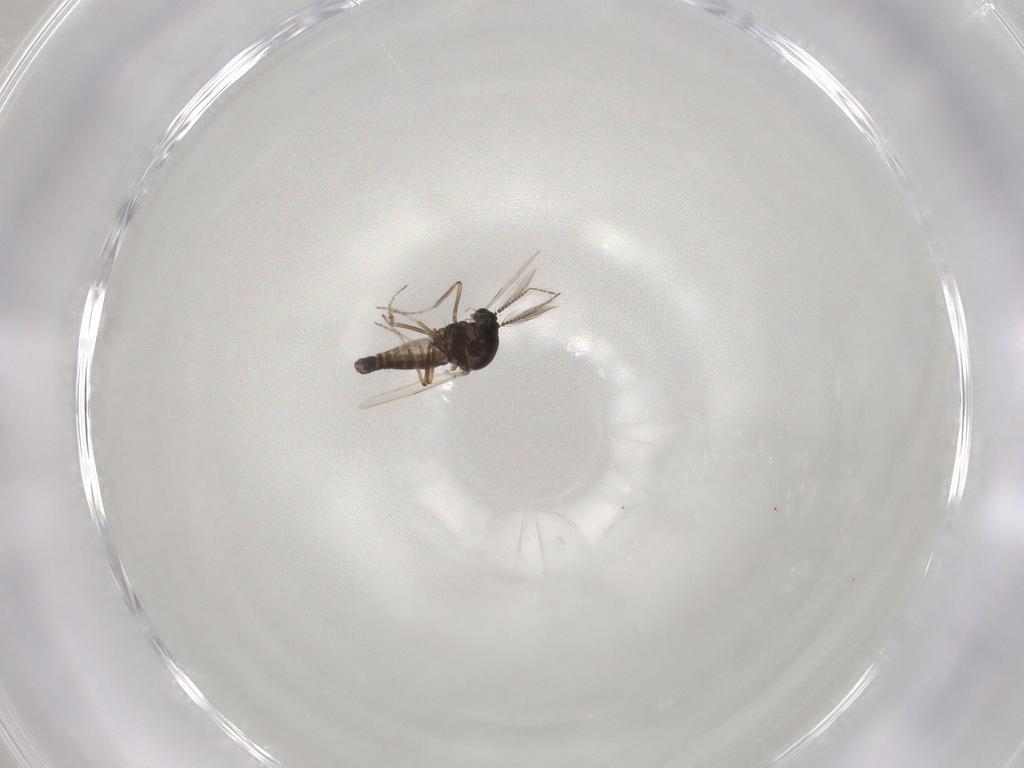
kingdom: Animalia
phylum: Arthropoda
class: Insecta
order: Diptera
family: Ceratopogonidae
